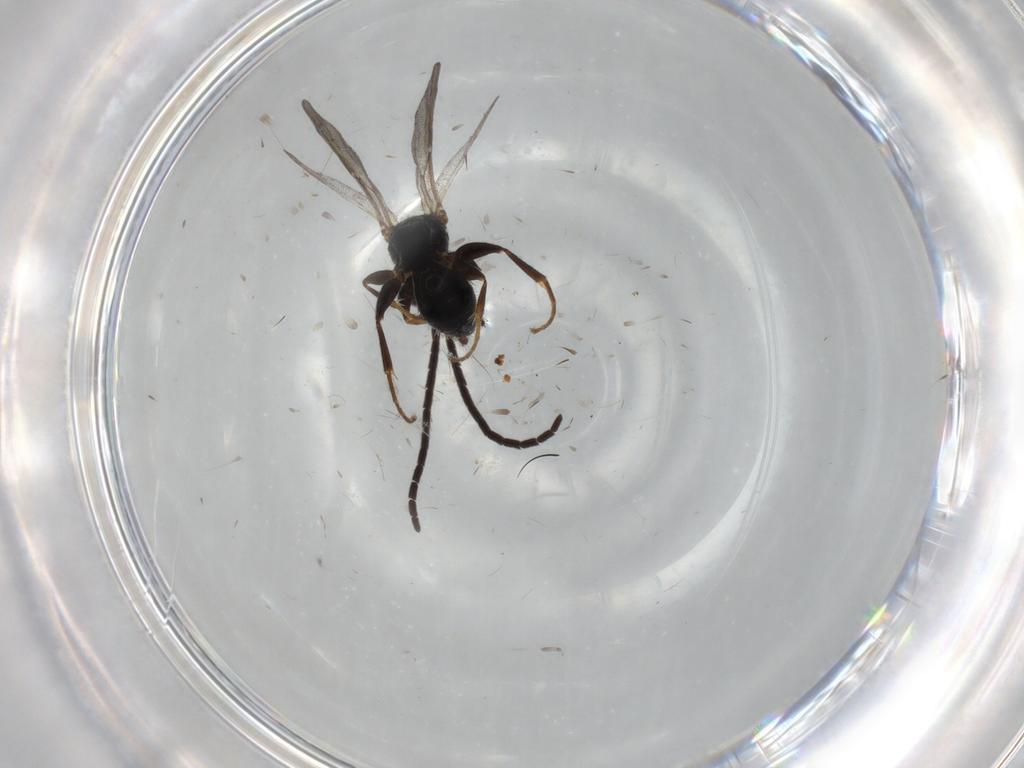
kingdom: Animalia
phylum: Arthropoda
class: Insecta
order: Hymenoptera
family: Bethylidae
